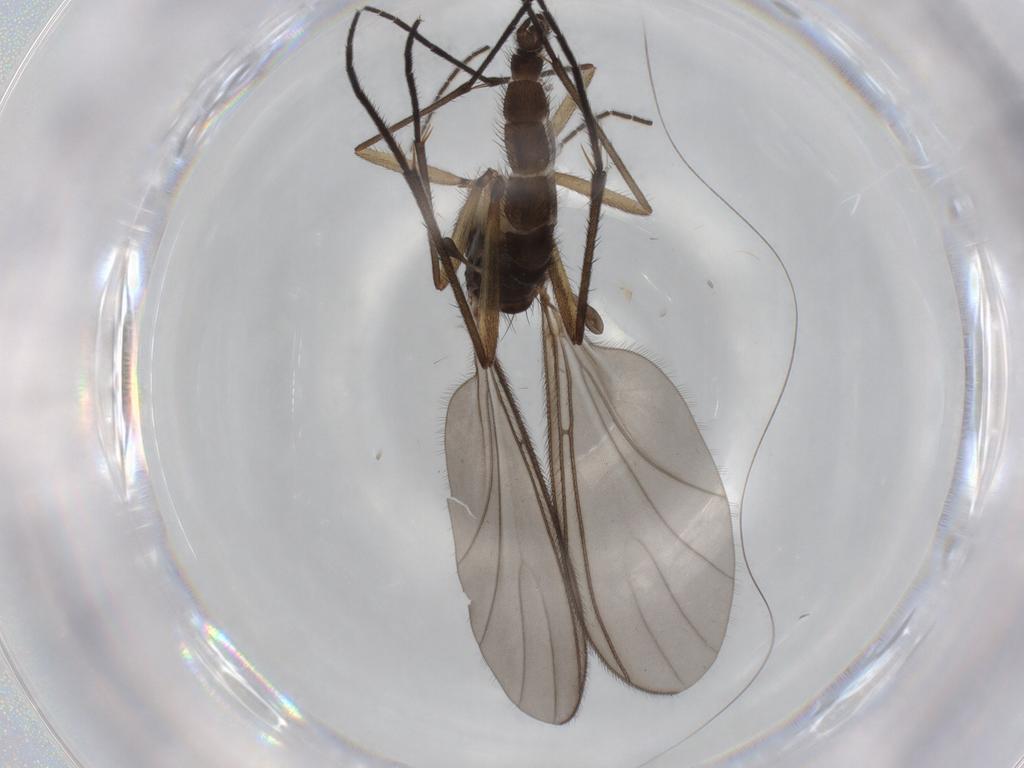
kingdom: Animalia
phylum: Arthropoda
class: Insecta
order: Diptera
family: Sciaridae
